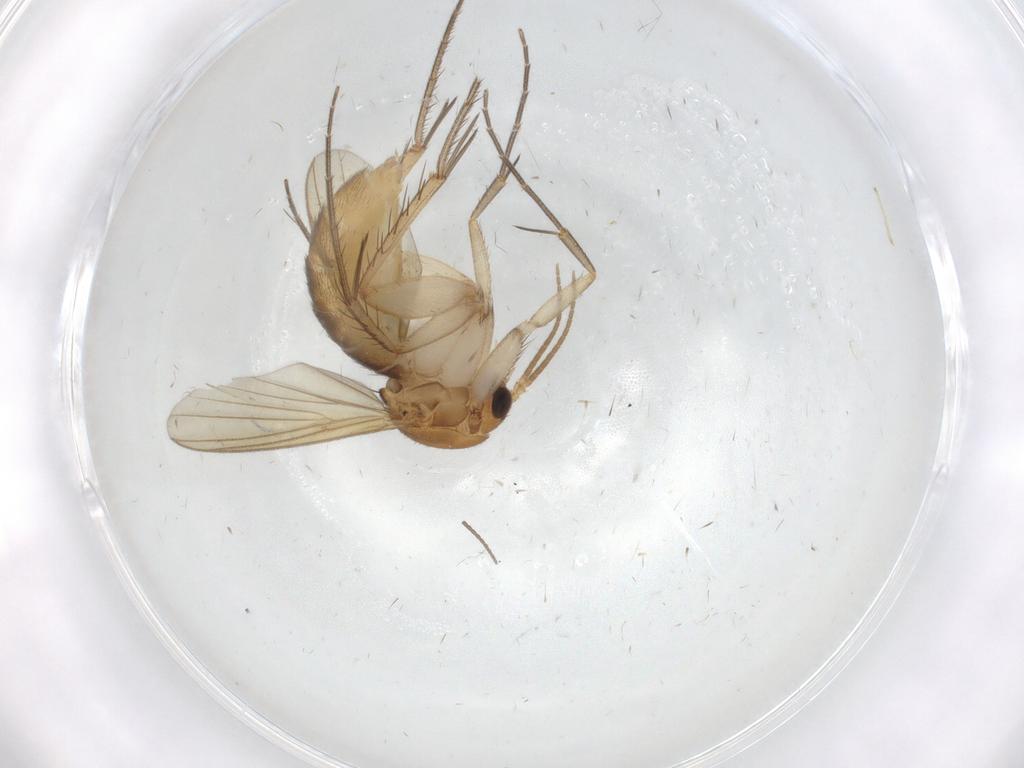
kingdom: Animalia
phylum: Arthropoda
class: Insecta
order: Diptera
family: Mycetophilidae
